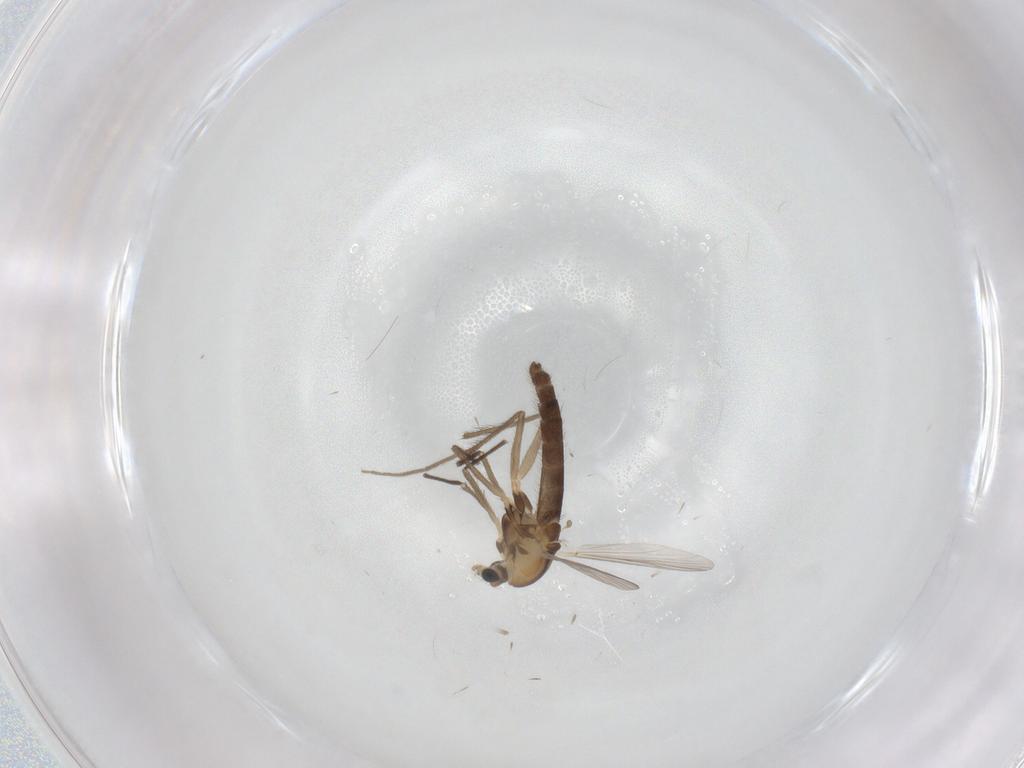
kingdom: Animalia
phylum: Arthropoda
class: Insecta
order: Diptera
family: Chironomidae
